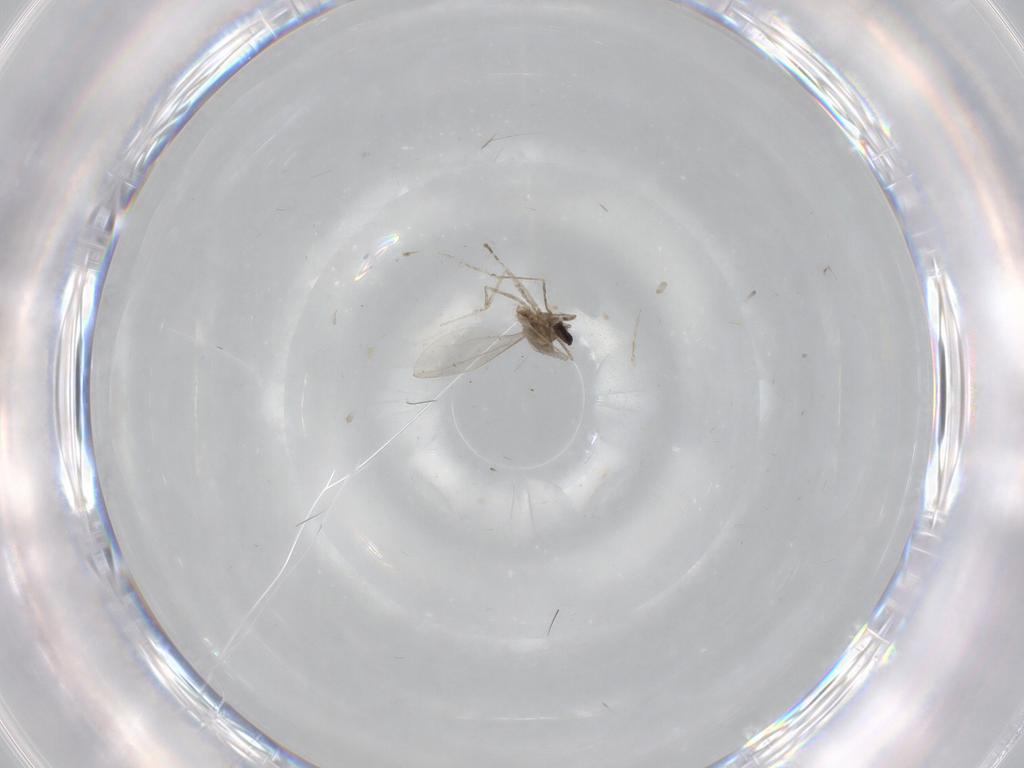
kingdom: Animalia
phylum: Arthropoda
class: Insecta
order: Diptera
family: Cecidomyiidae
